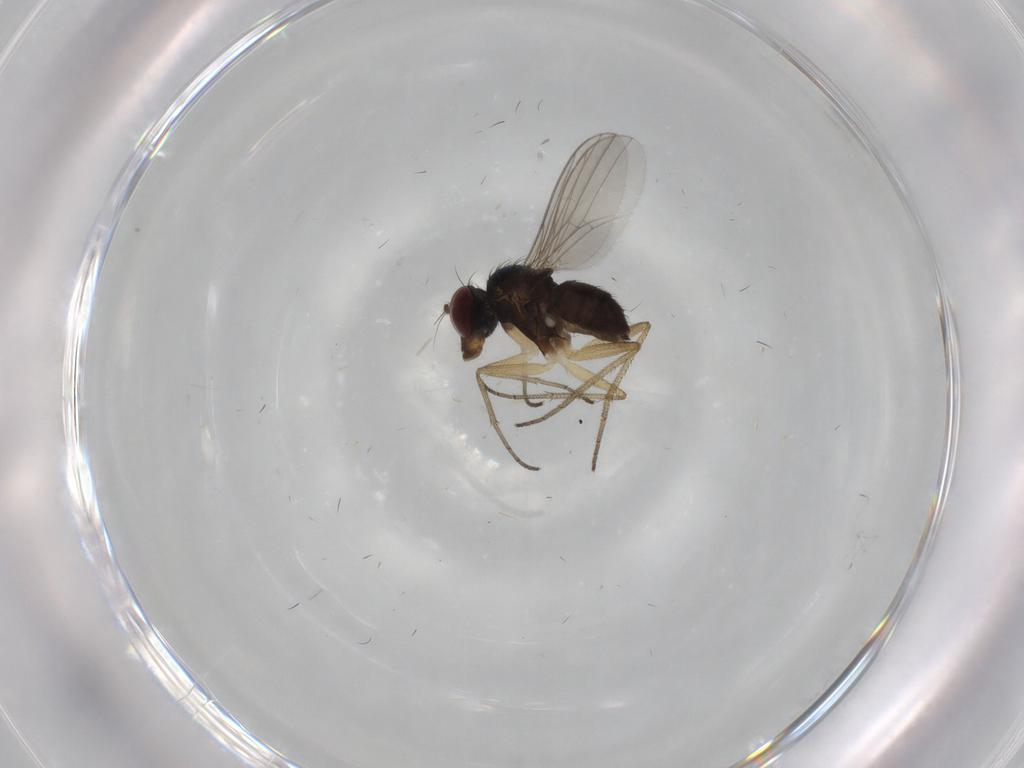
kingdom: Animalia
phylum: Arthropoda
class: Insecta
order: Diptera
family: Dolichopodidae
